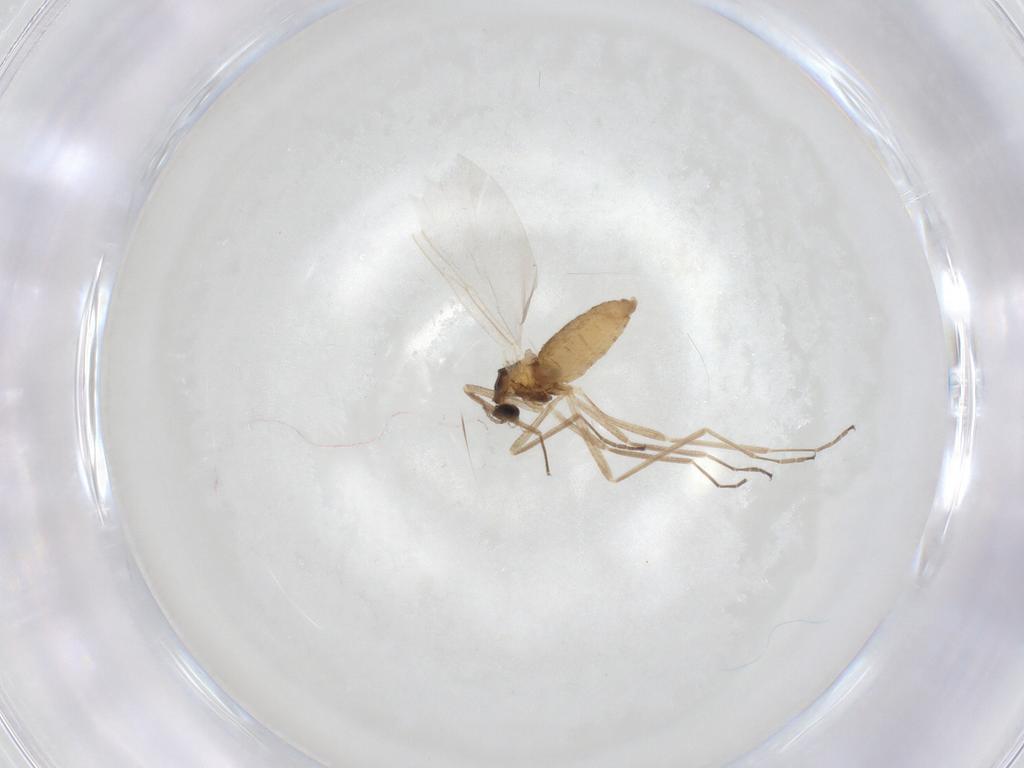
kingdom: Animalia
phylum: Arthropoda
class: Insecta
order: Diptera
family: Cecidomyiidae
